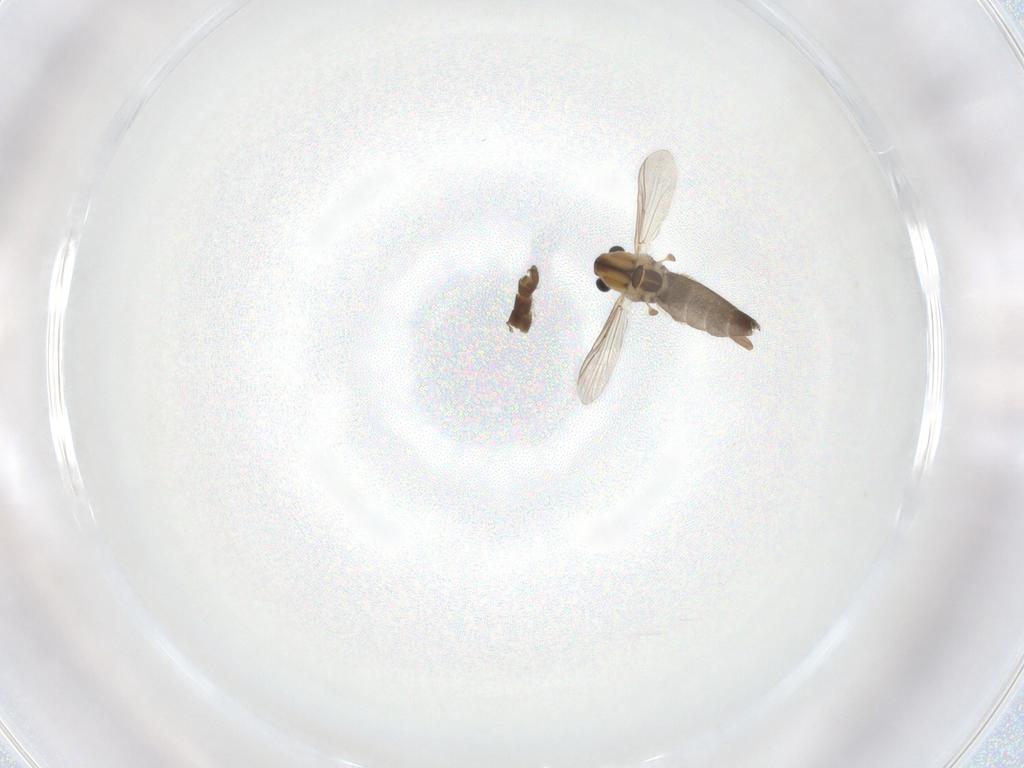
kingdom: Animalia
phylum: Arthropoda
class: Insecta
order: Diptera
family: Chironomidae
